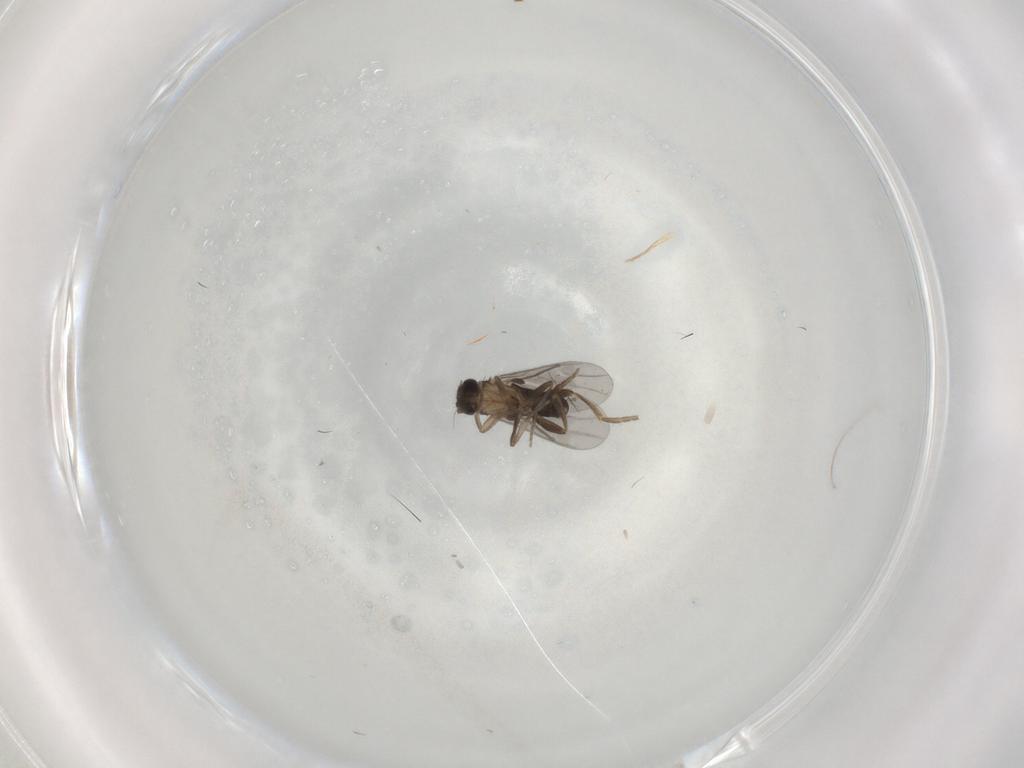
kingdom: Animalia
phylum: Arthropoda
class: Insecta
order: Diptera
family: Phoridae
